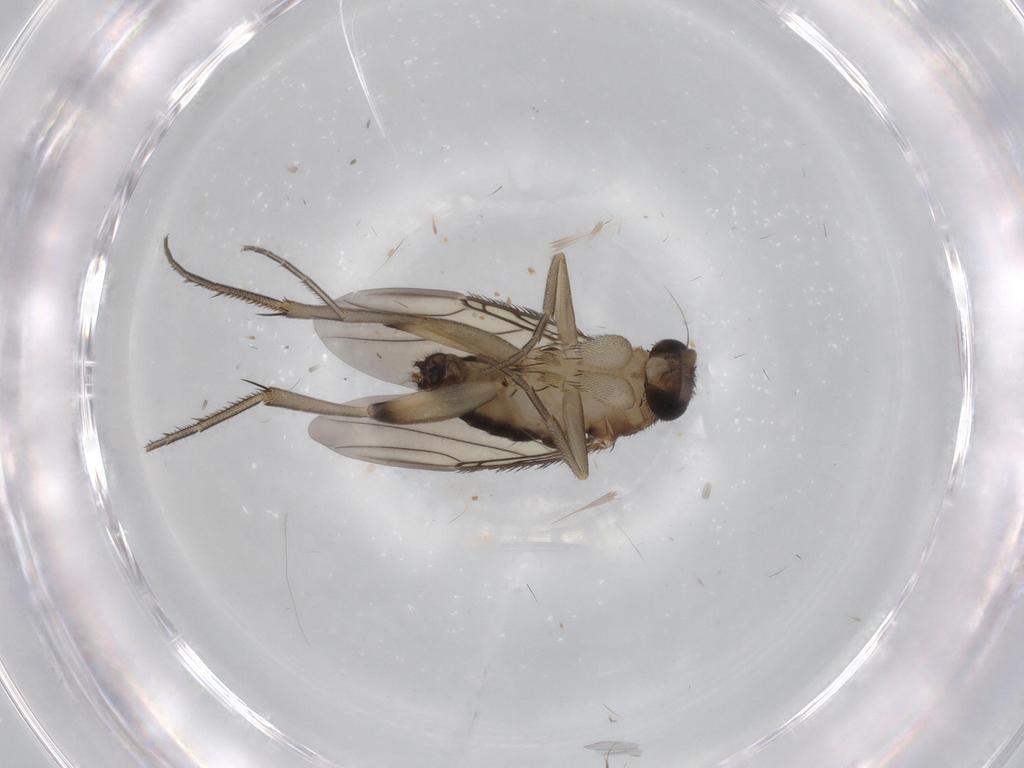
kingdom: Animalia
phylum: Arthropoda
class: Insecta
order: Diptera
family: Phoridae
